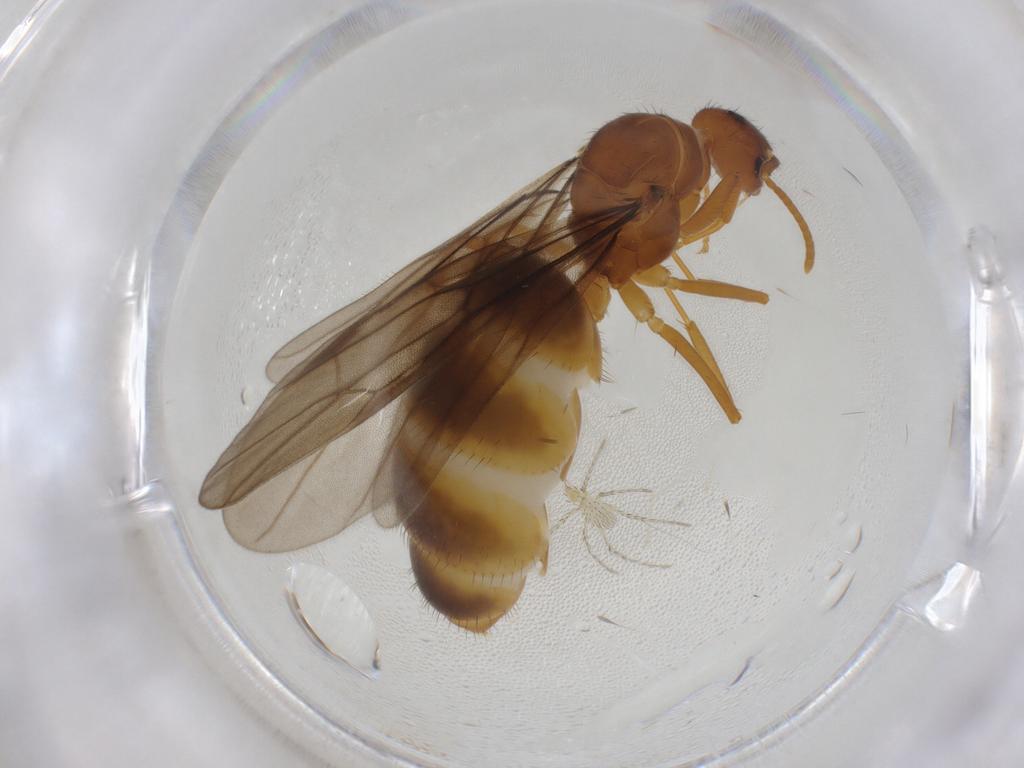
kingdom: Animalia
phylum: Arthropoda
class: Insecta
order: Hymenoptera
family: Formicidae
